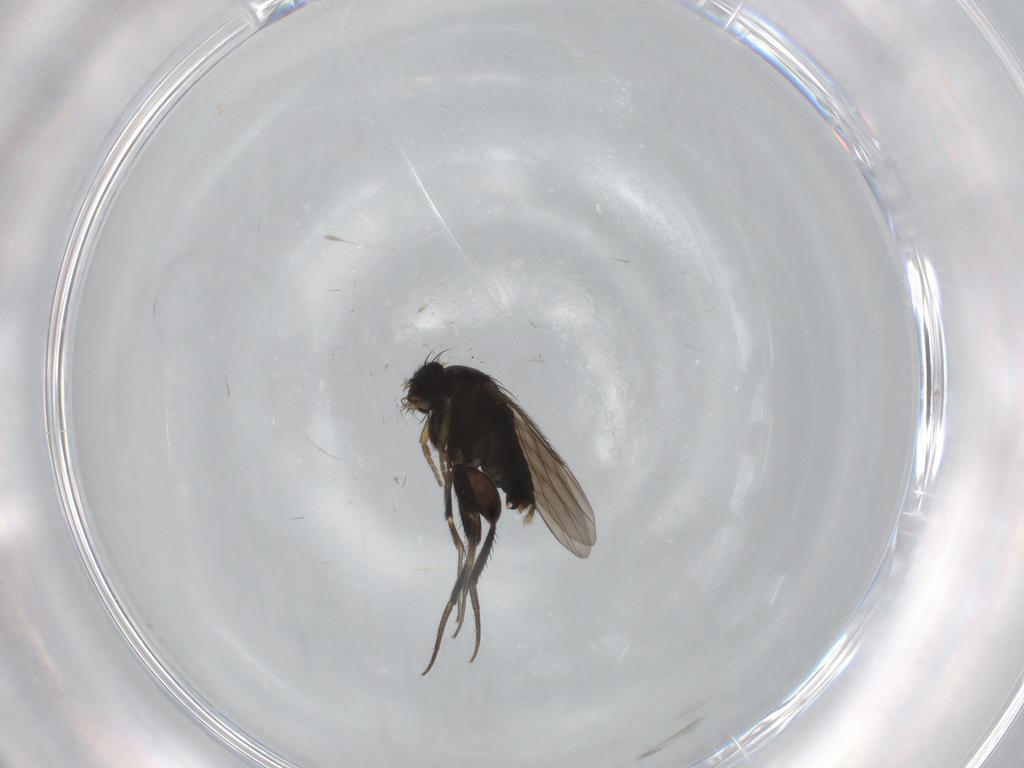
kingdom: Animalia
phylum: Arthropoda
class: Insecta
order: Diptera
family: Phoridae
